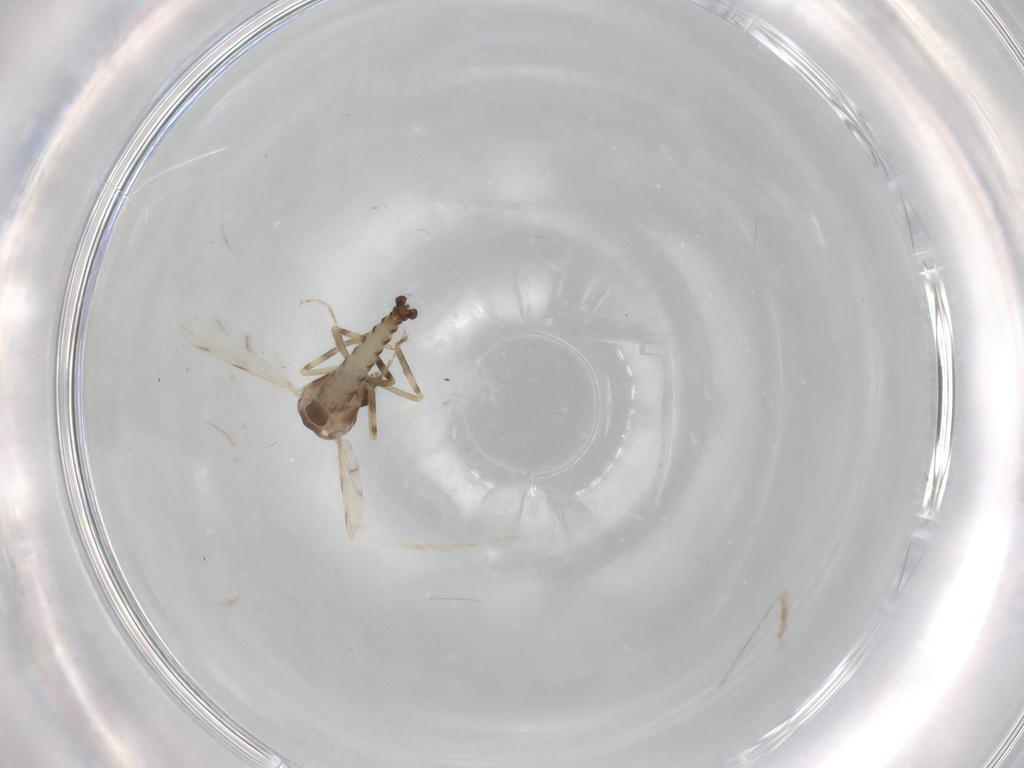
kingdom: Animalia
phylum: Arthropoda
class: Insecta
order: Diptera
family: Ceratopogonidae
